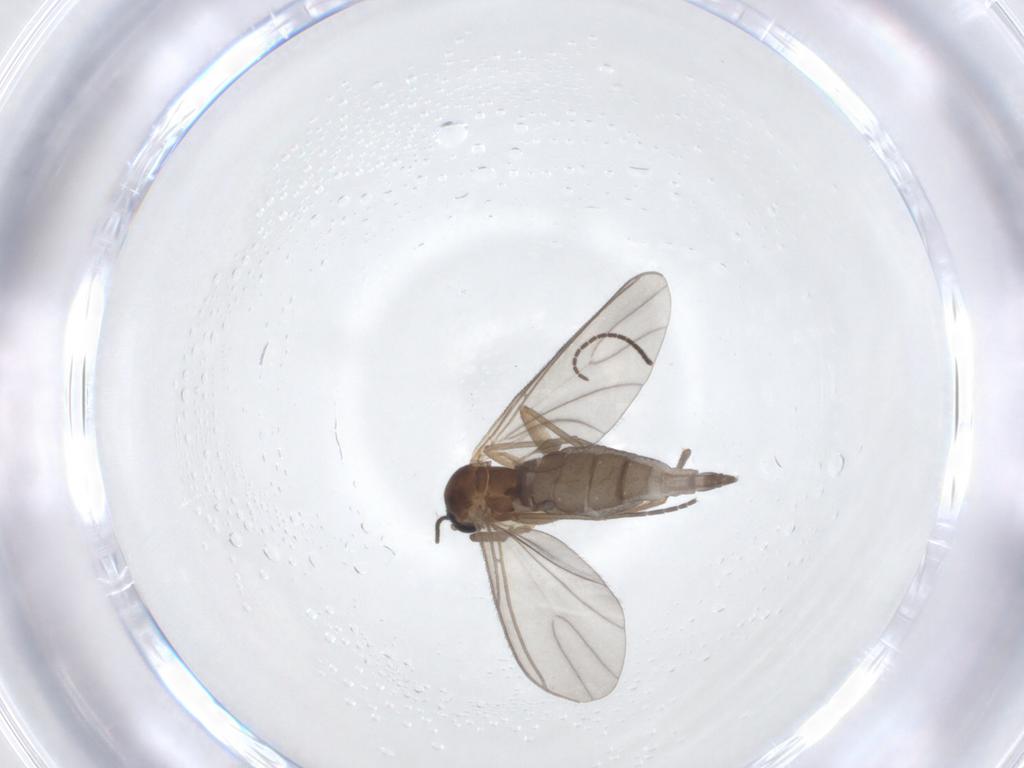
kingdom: Animalia
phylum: Arthropoda
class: Insecta
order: Diptera
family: Sciaridae
